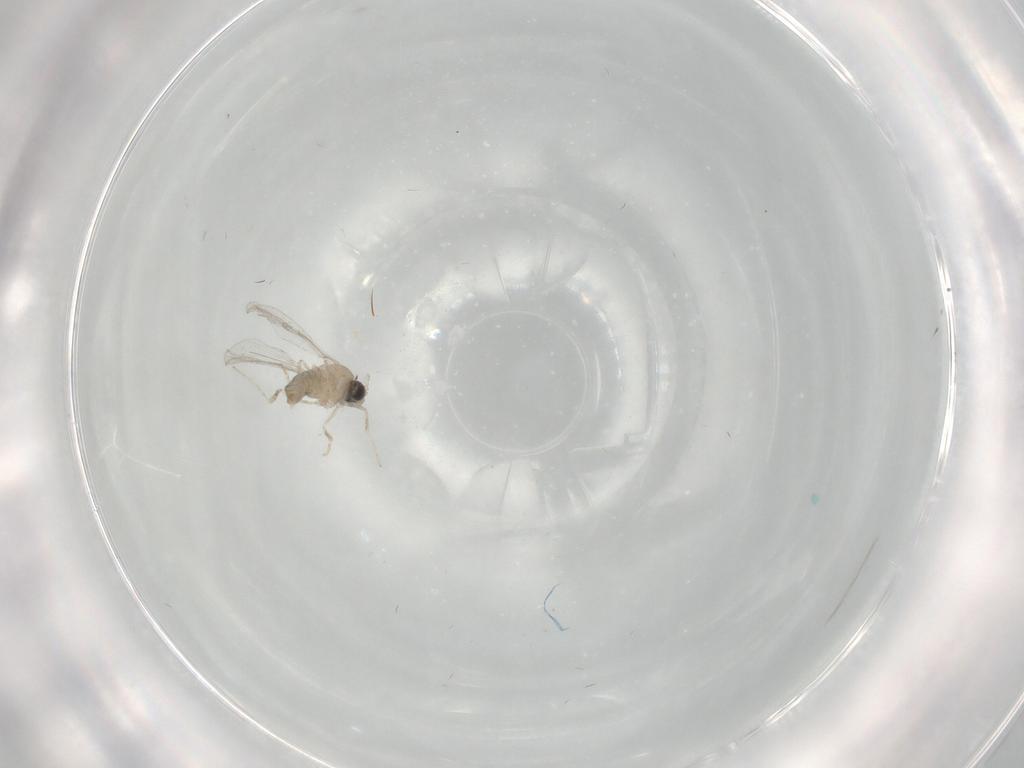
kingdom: Animalia
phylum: Arthropoda
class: Insecta
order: Diptera
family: Cecidomyiidae
